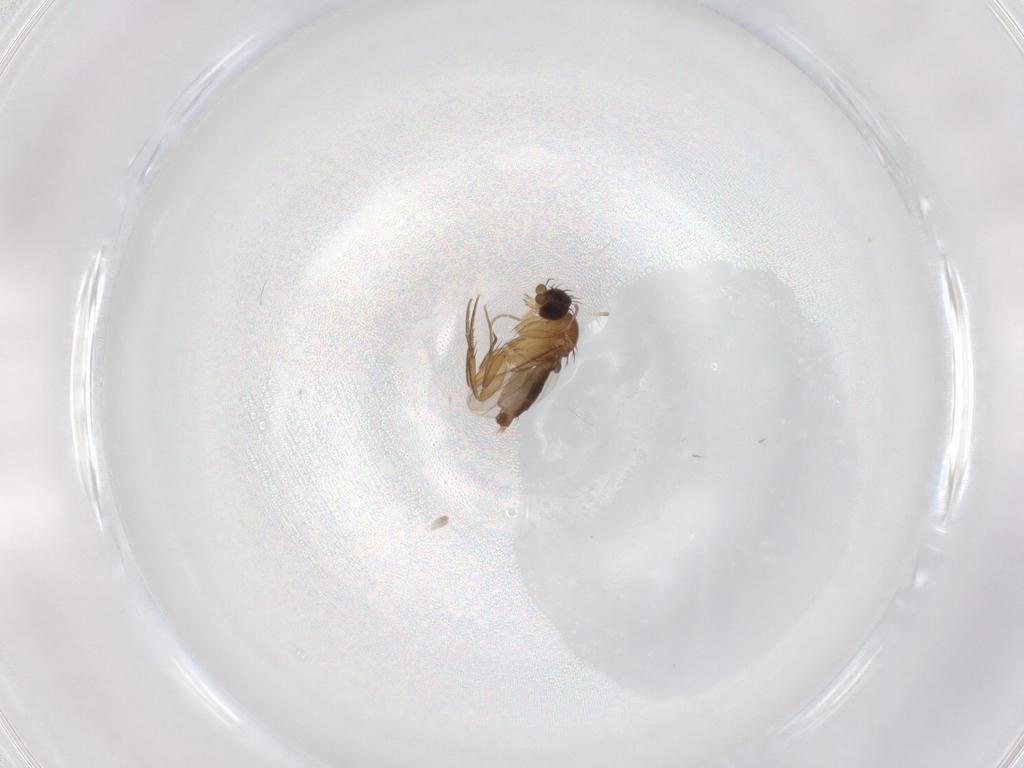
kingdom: Animalia
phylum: Arthropoda
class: Insecta
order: Diptera
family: Phoridae
